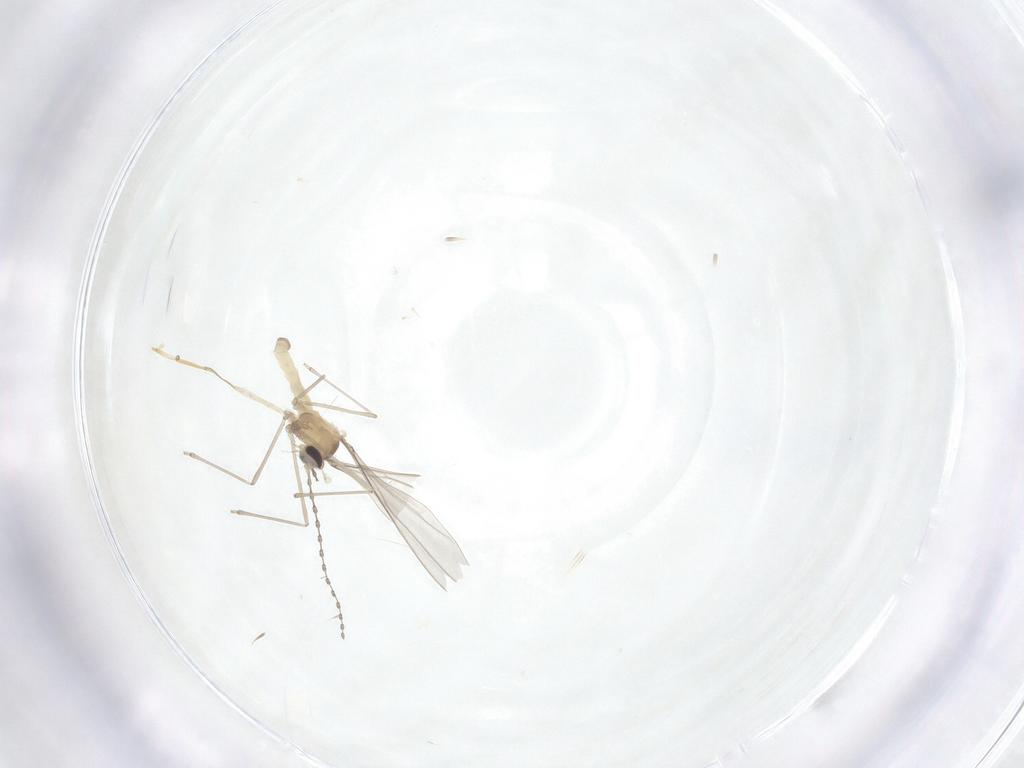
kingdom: Animalia
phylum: Arthropoda
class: Insecta
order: Diptera
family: Cecidomyiidae
